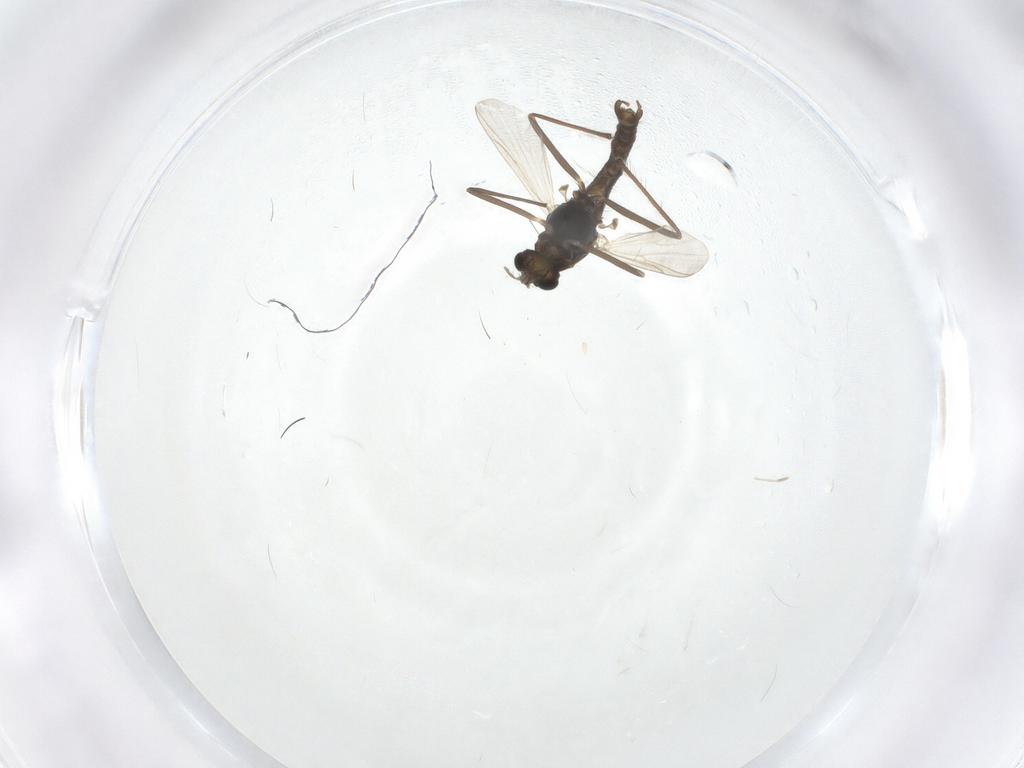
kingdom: Animalia
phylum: Arthropoda
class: Insecta
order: Diptera
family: Chironomidae
